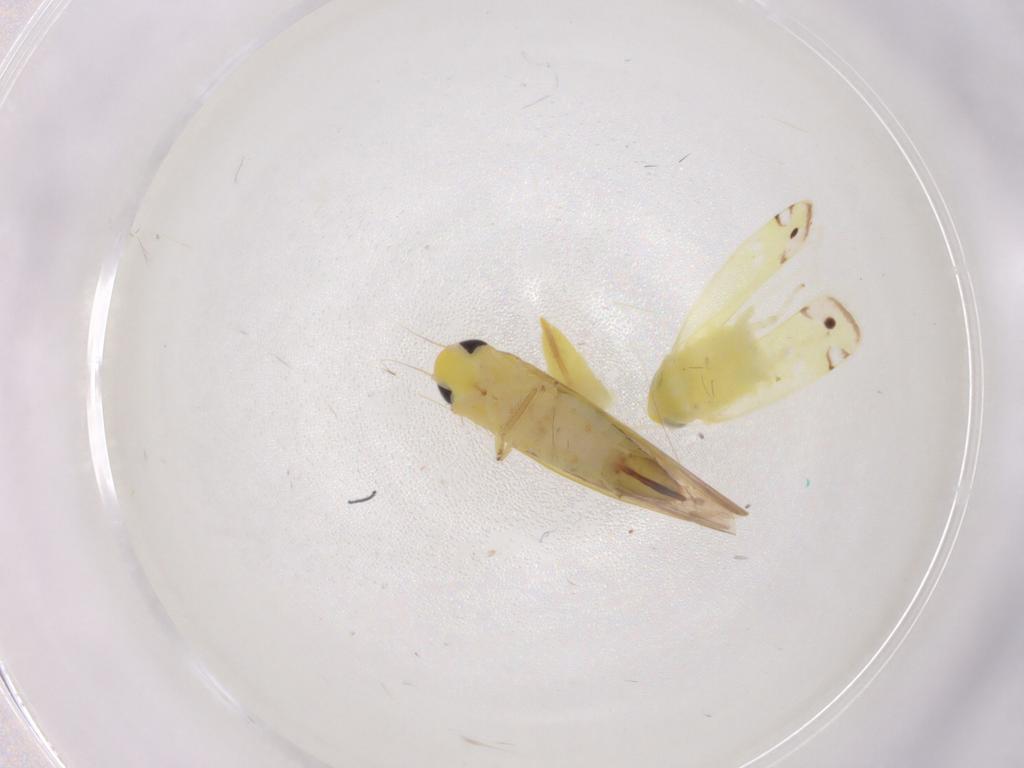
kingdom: Animalia
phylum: Arthropoda
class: Insecta
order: Hemiptera
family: Cicadellidae
